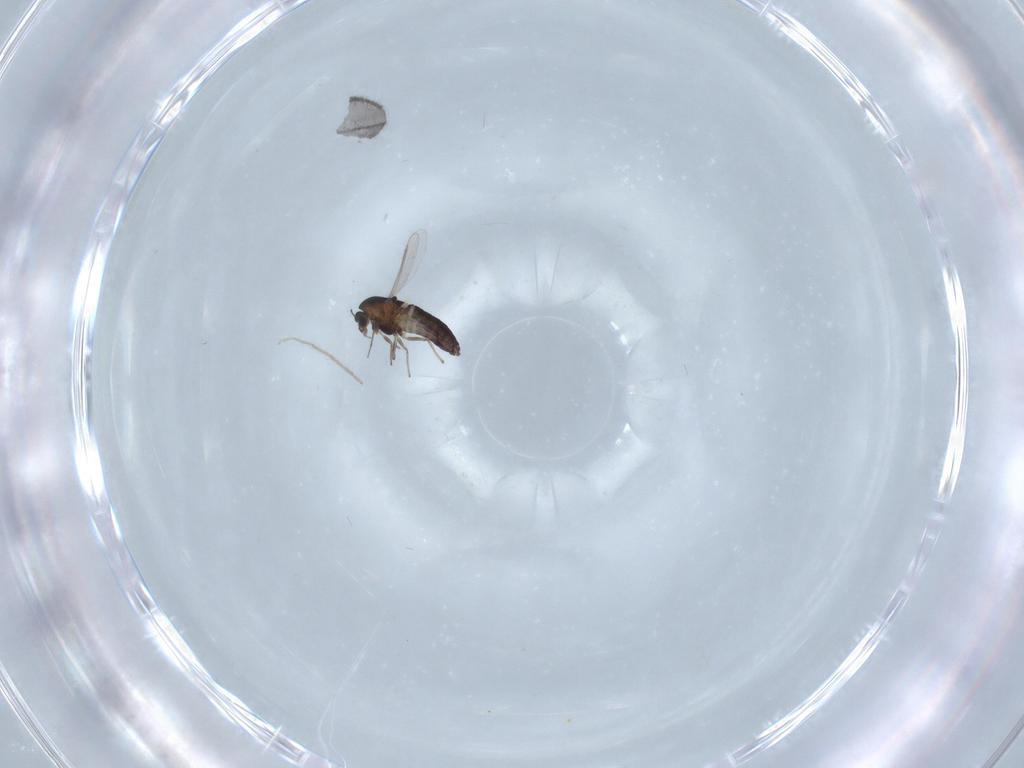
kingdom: Animalia
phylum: Arthropoda
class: Insecta
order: Diptera
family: Chironomidae
